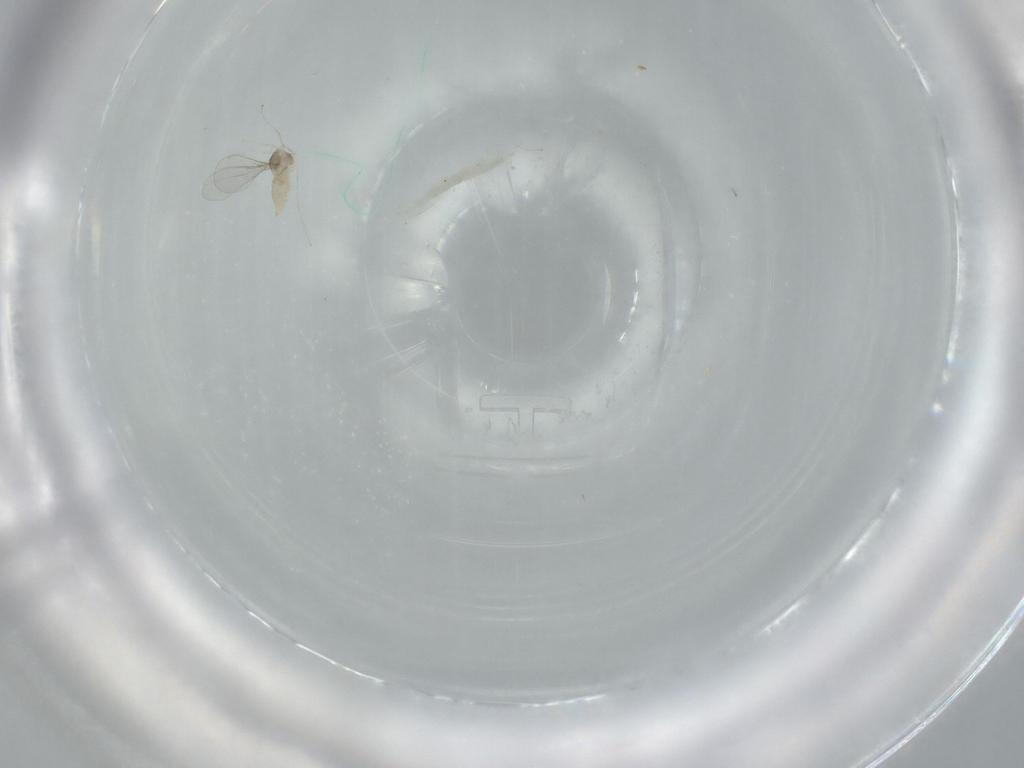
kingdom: Animalia
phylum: Arthropoda
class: Insecta
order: Diptera
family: Cecidomyiidae
